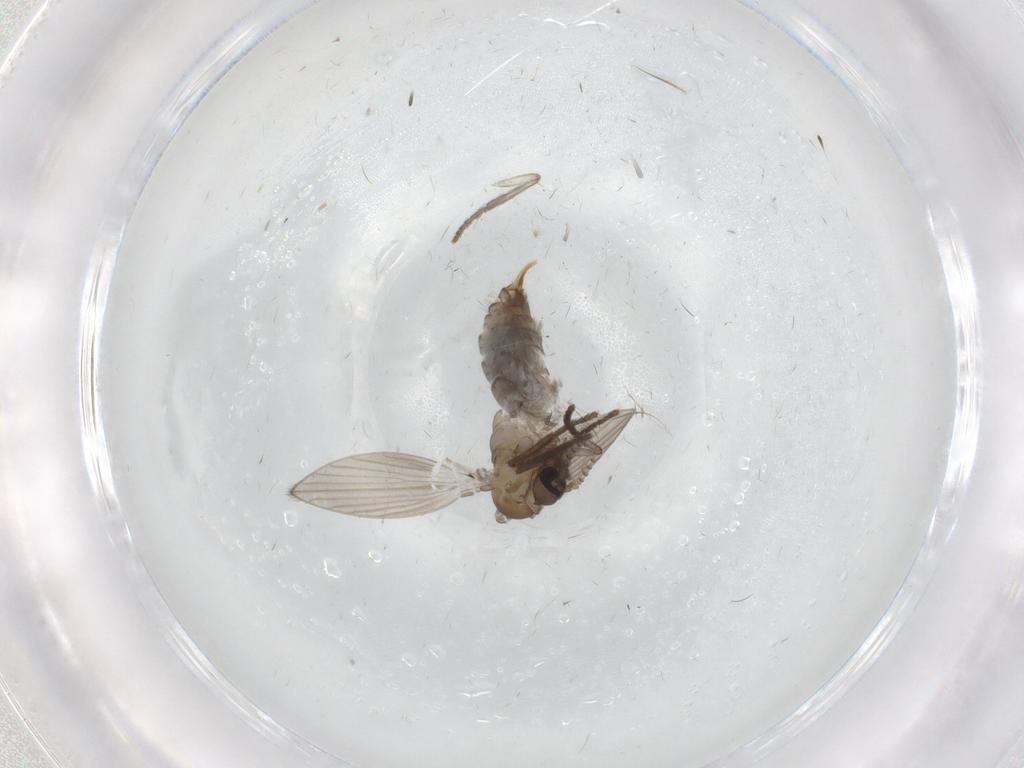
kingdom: Animalia
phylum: Arthropoda
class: Insecta
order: Diptera
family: Psychodidae
